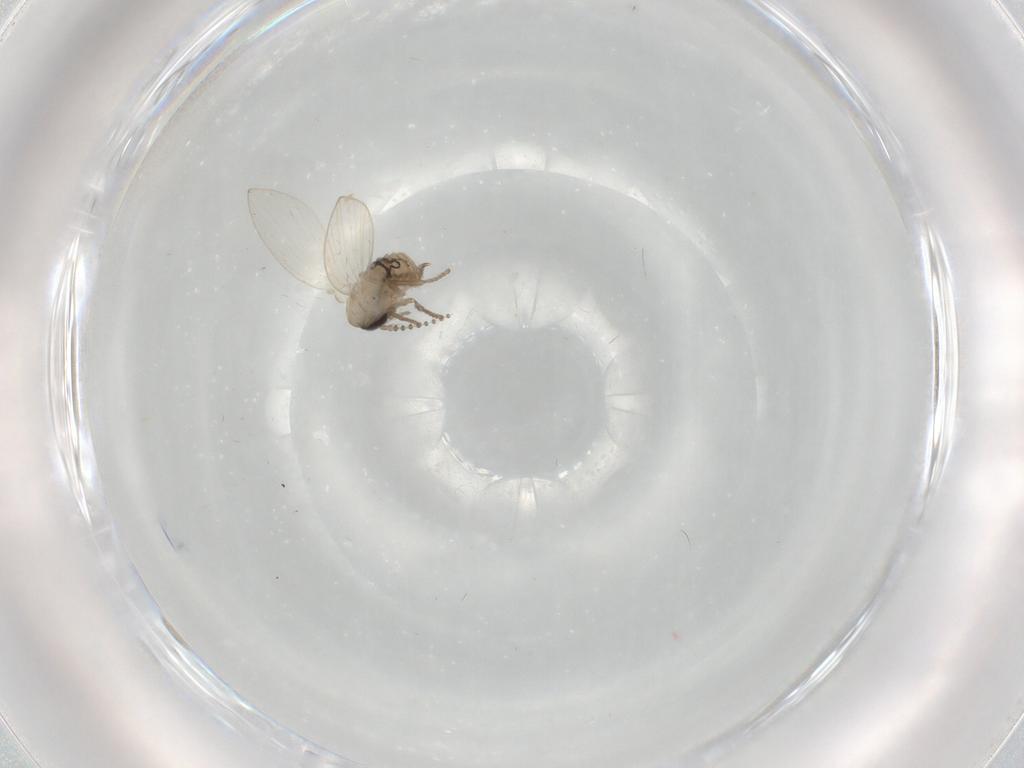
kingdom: Animalia
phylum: Arthropoda
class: Insecta
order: Diptera
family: Psychodidae
